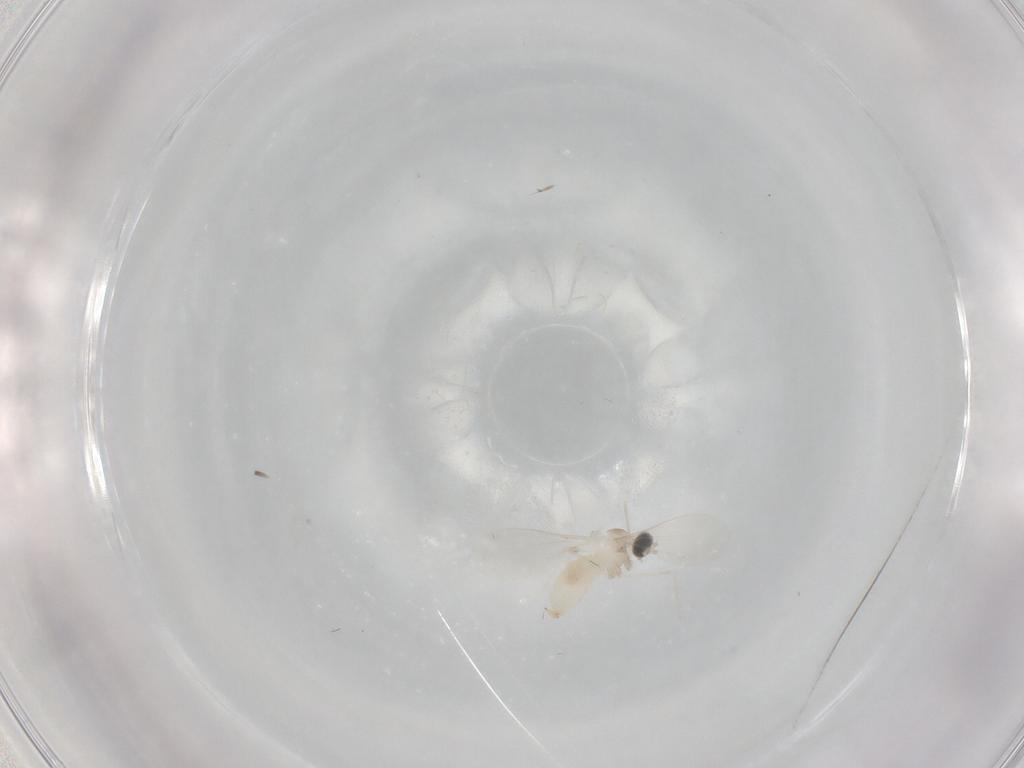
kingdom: Animalia
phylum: Arthropoda
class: Insecta
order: Diptera
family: Cecidomyiidae
